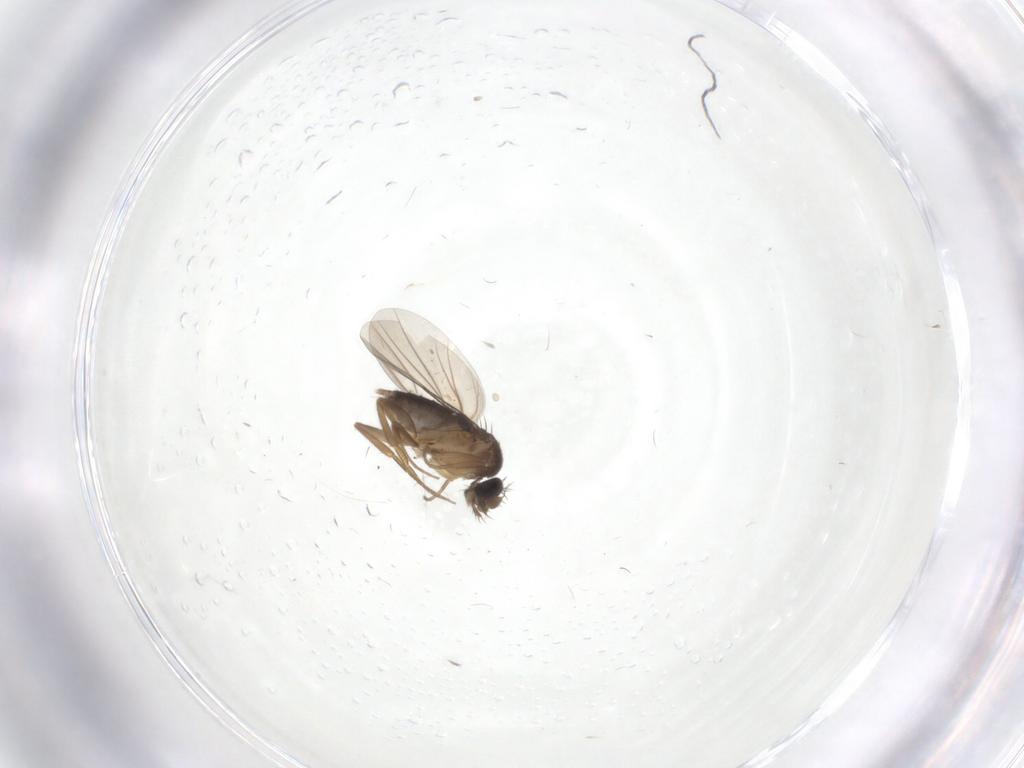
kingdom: Animalia
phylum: Arthropoda
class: Insecta
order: Diptera
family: Phoridae
